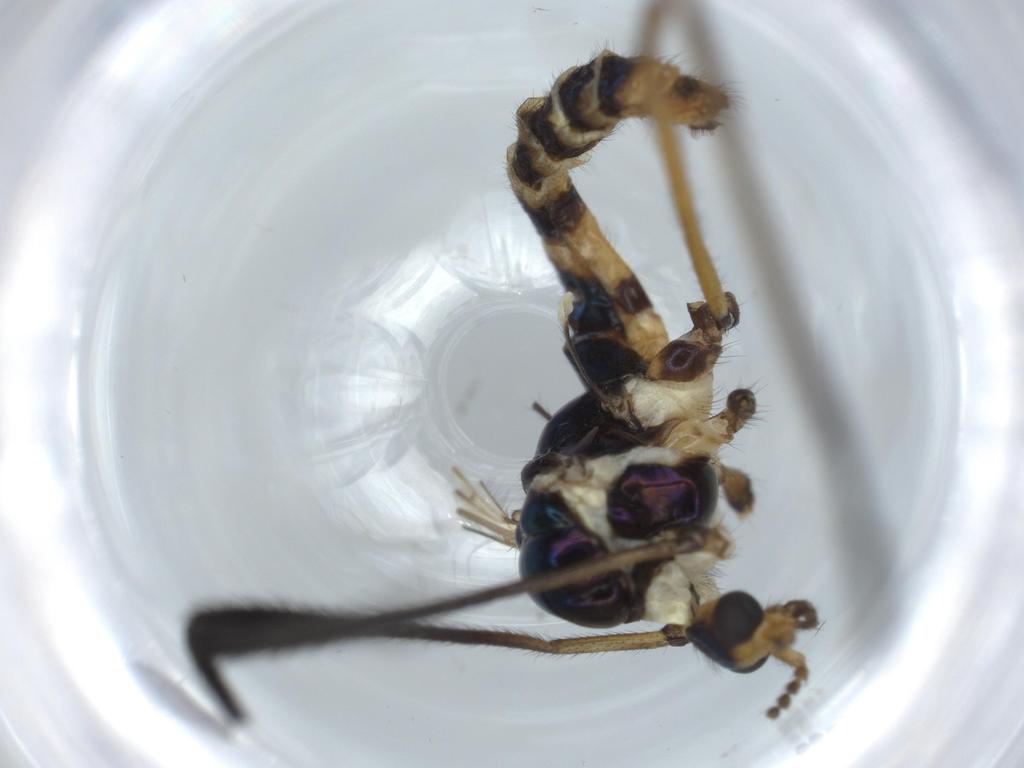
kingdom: Animalia
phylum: Arthropoda
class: Insecta
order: Diptera
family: Limoniidae
